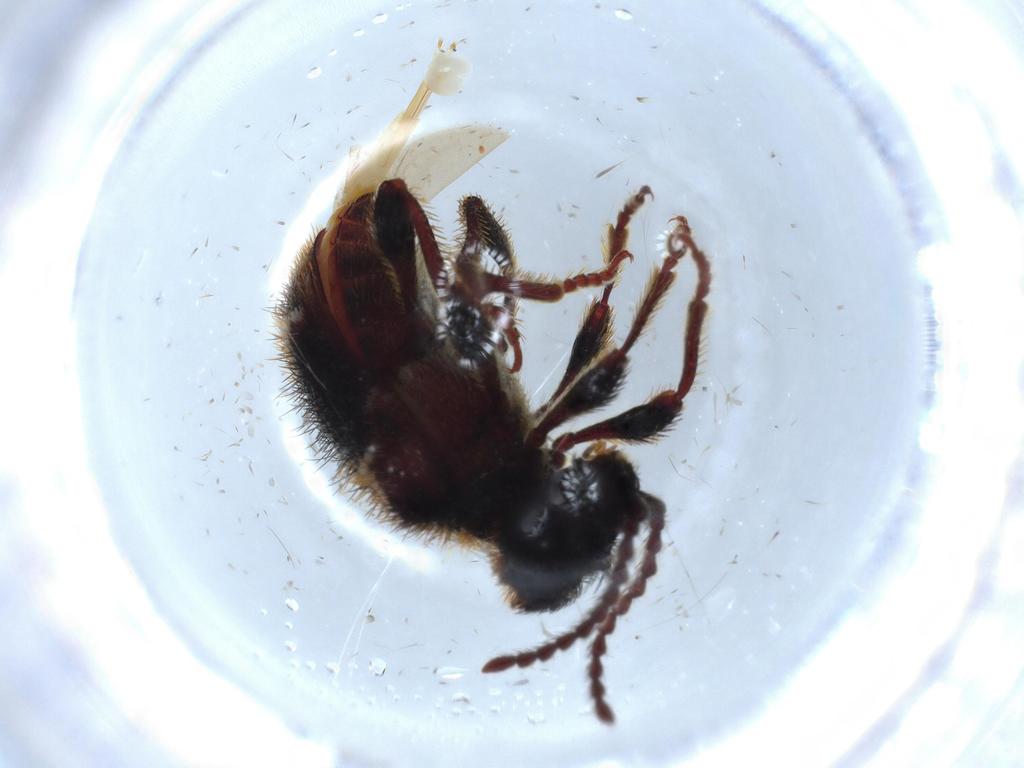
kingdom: Animalia
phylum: Arthropoda
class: Insecta
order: Coleoptera
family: Ptinidae
